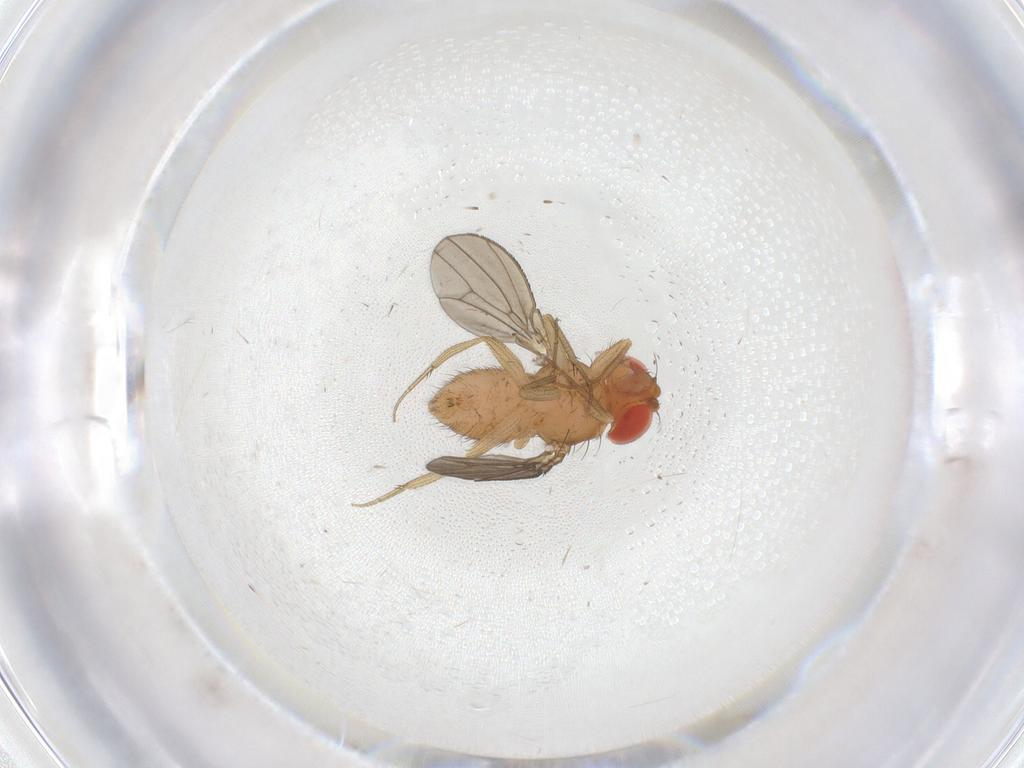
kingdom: Animalia
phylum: Arthropoda
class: Insecta
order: Diptera
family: Drosophilidae
